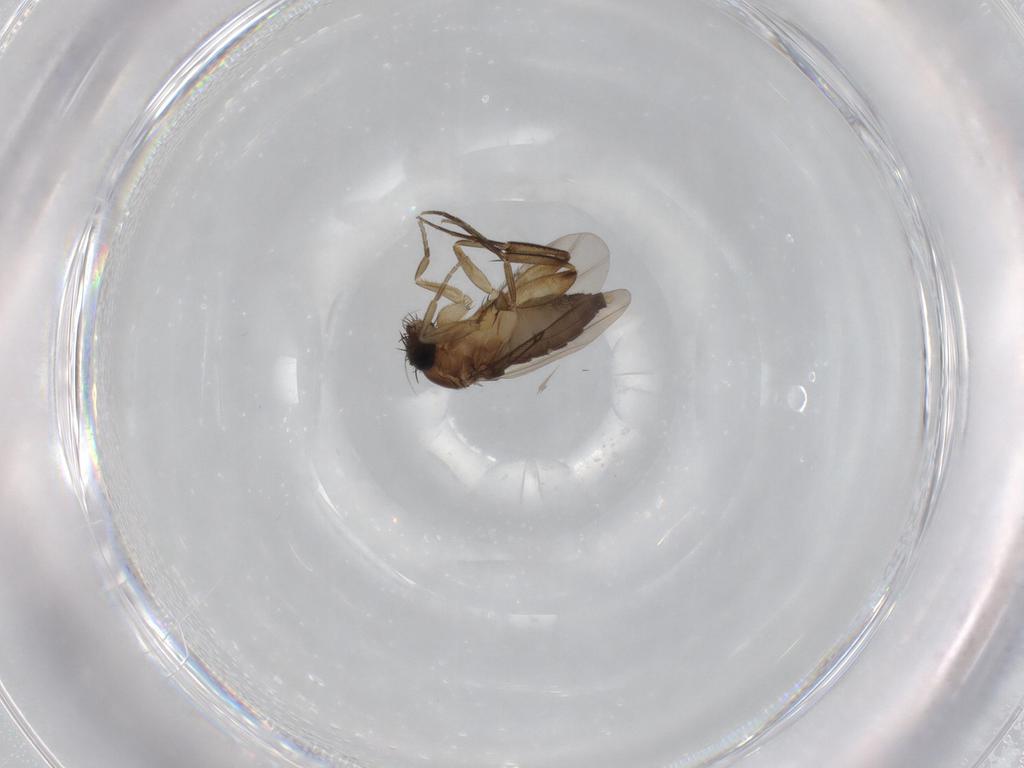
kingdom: Animalia
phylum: Arthropoda
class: Insecta
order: Diptera
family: Phoridae
